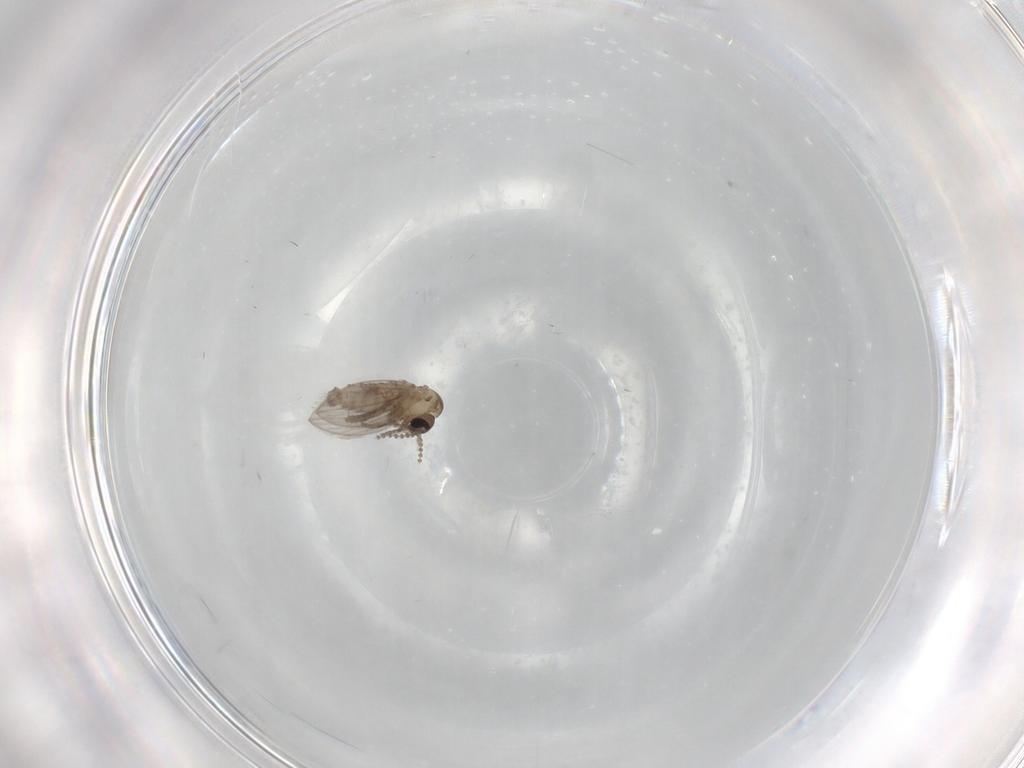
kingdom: Animalia
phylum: Arthropoda
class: Insecta
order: Diptera
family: Psychodidae
